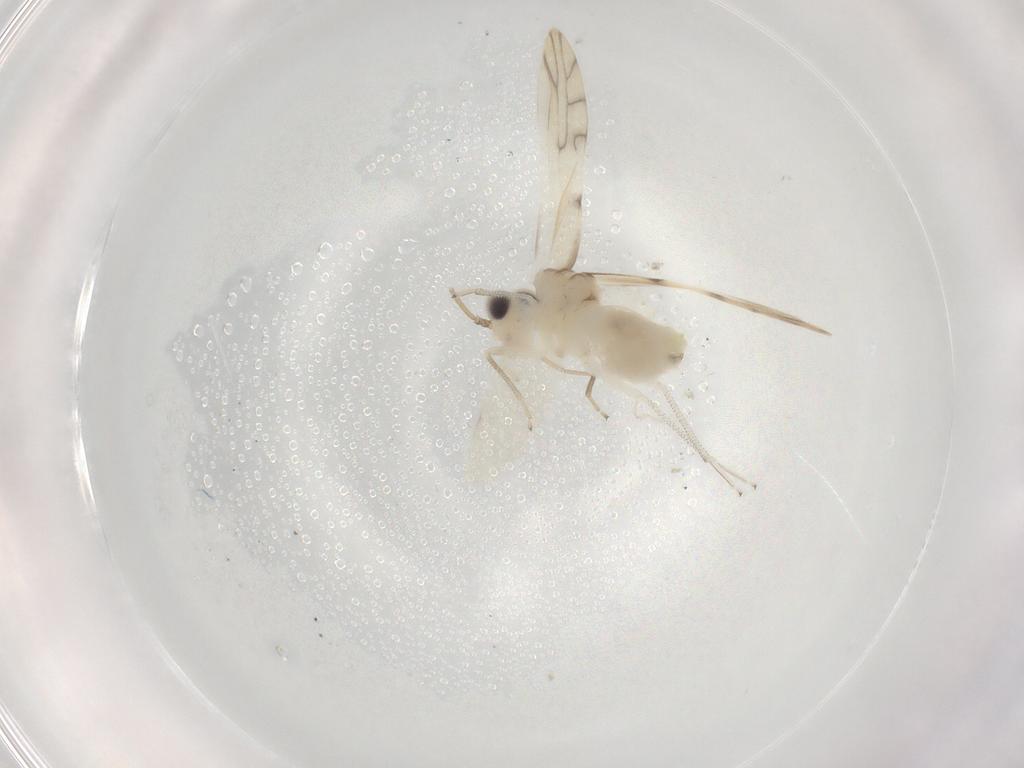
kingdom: Animalia
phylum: Arthropoda
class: Insecta
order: Psocodea
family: Caeciliusidae
